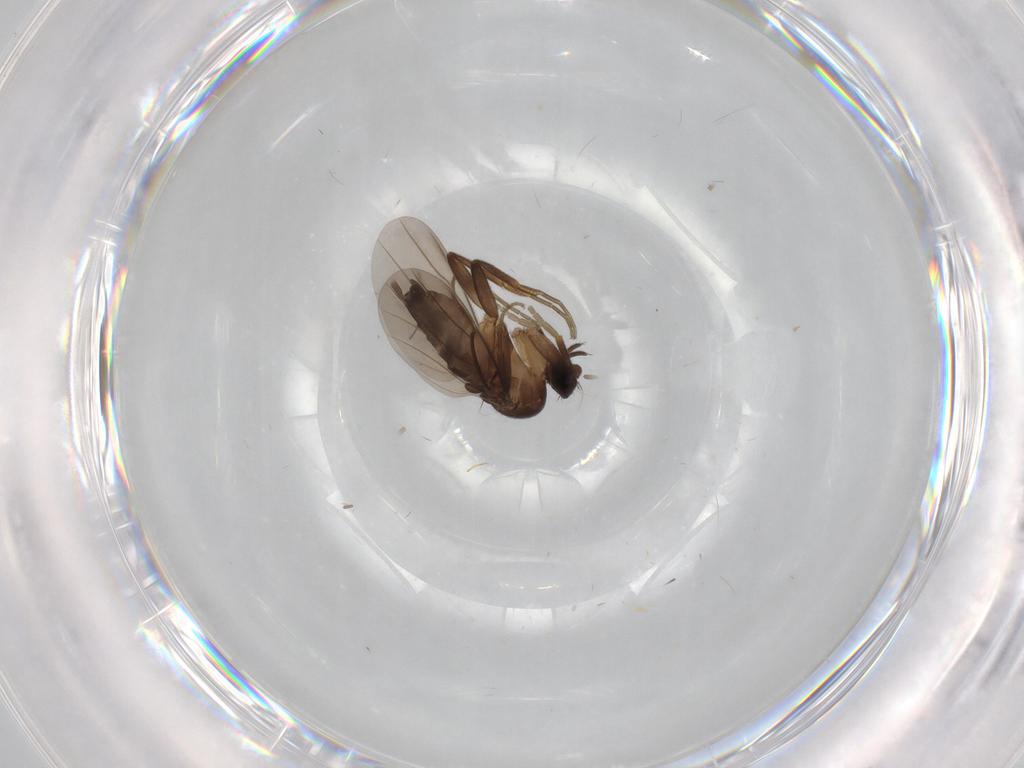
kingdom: Animalia
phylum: Arthropoda
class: Insecta
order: Diptera
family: Phoridae
